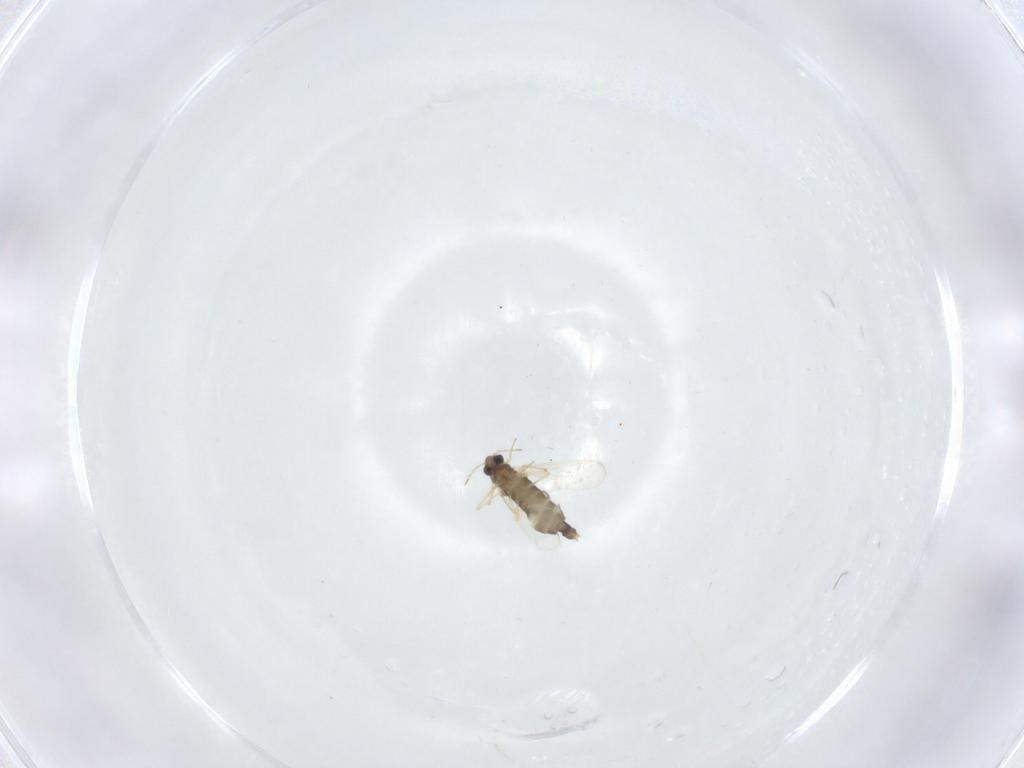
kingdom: Animalia
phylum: Arthropoda
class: Insecta
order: Diptera
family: Chironomidae
